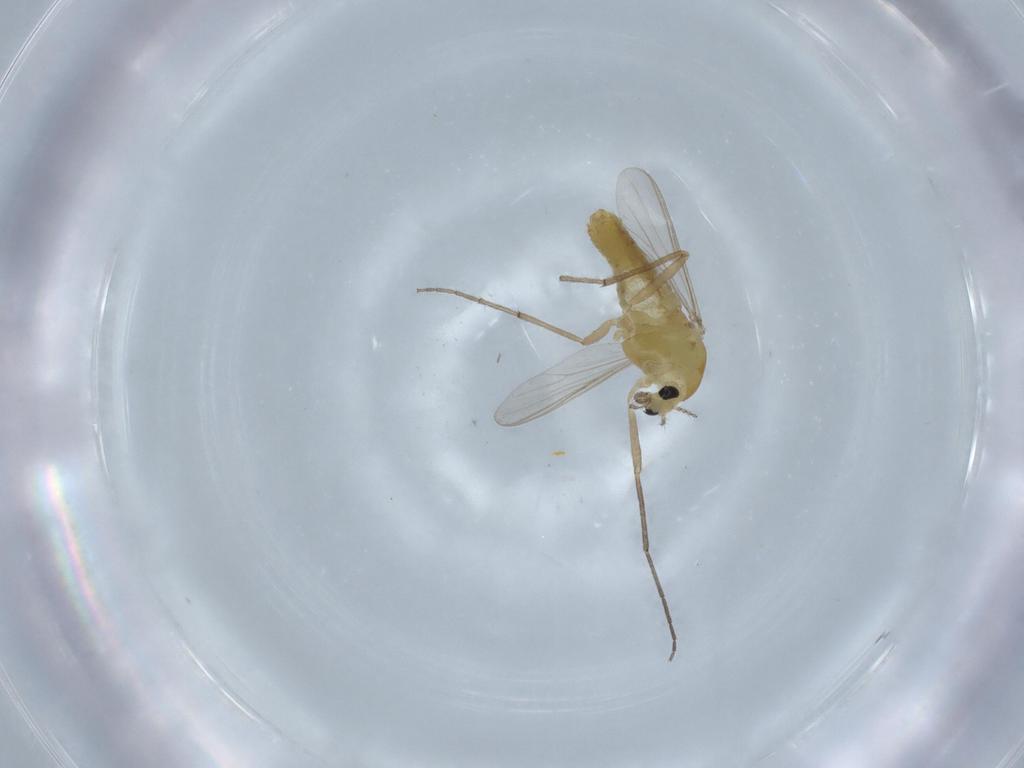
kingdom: Animalia
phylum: Arthropoda
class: Insecta
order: Diptera
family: Chironomidae
